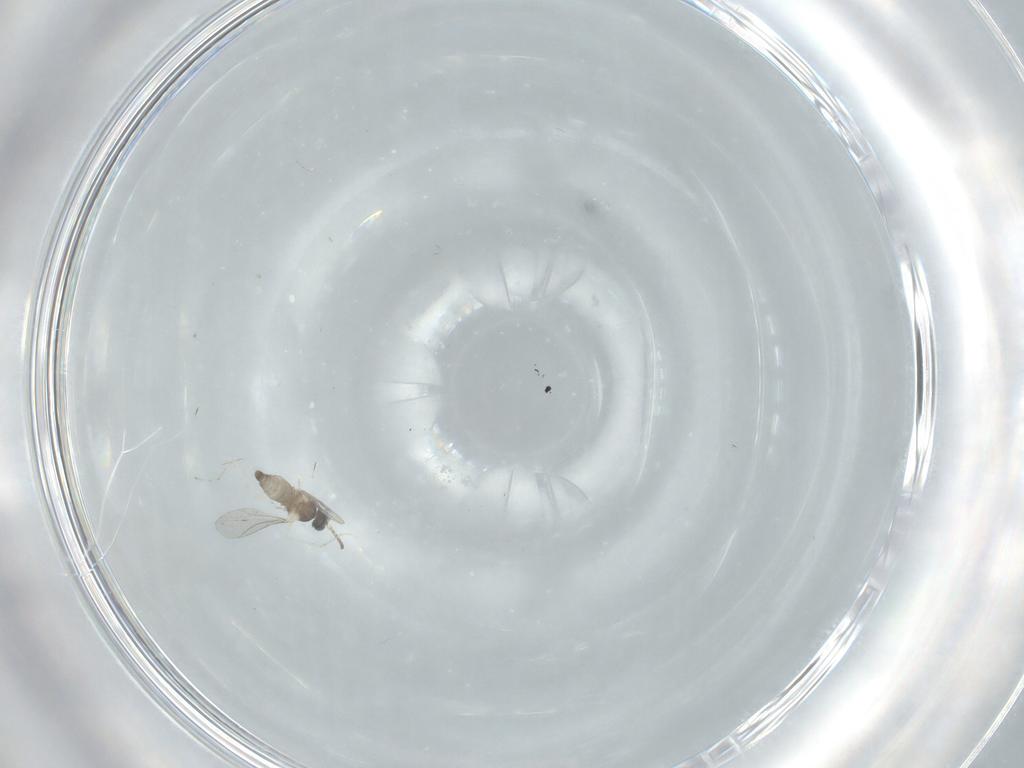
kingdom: Animalia
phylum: Arthropoda
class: Insecta
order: Diptera
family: Cecidomyiidae
